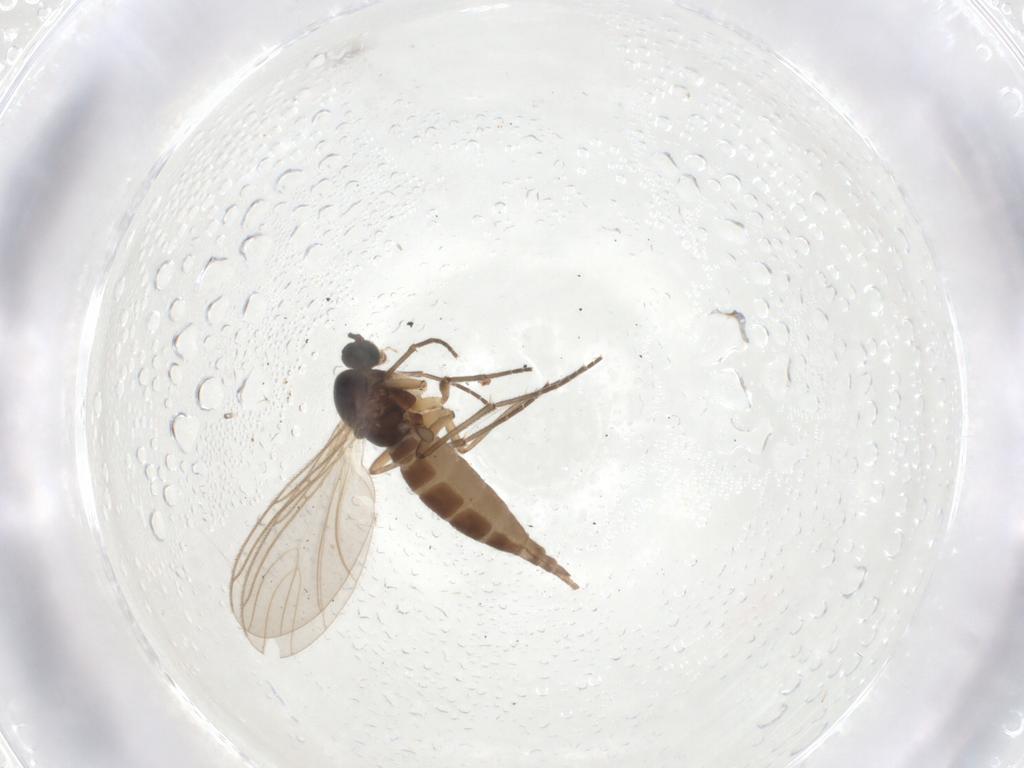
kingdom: Animalia
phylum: Arthropoda
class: Insecta
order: Diptera
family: Sciaridae
